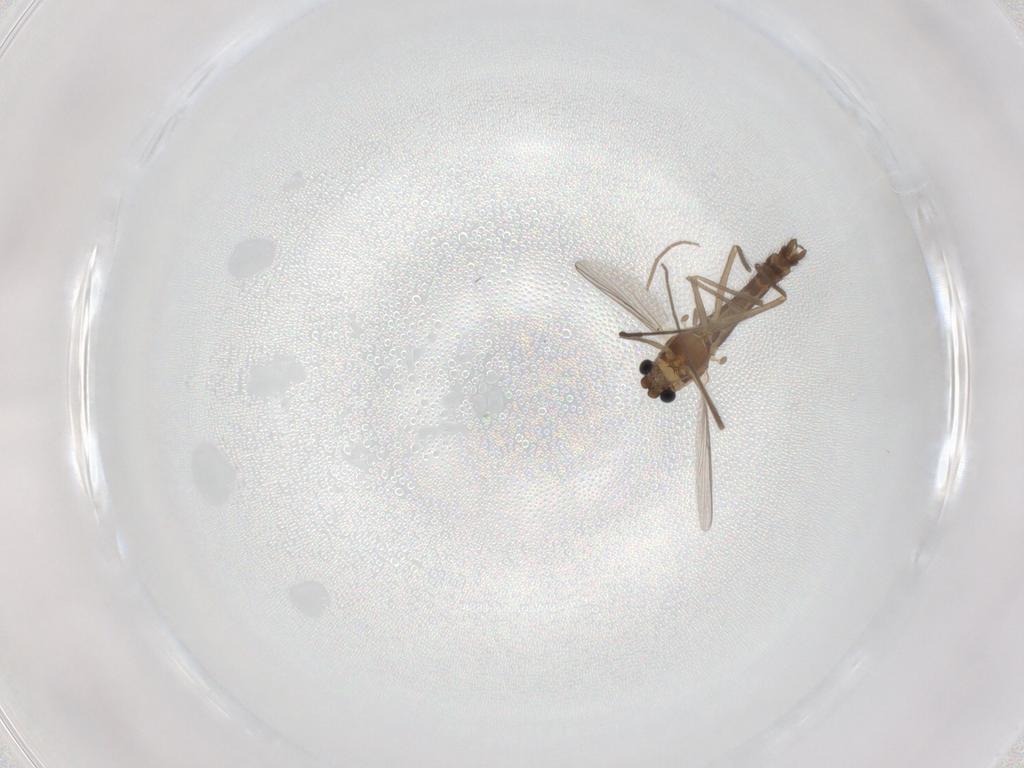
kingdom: Animalia
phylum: Arthropoda
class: Insecta
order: Diptera
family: Chironomidae
